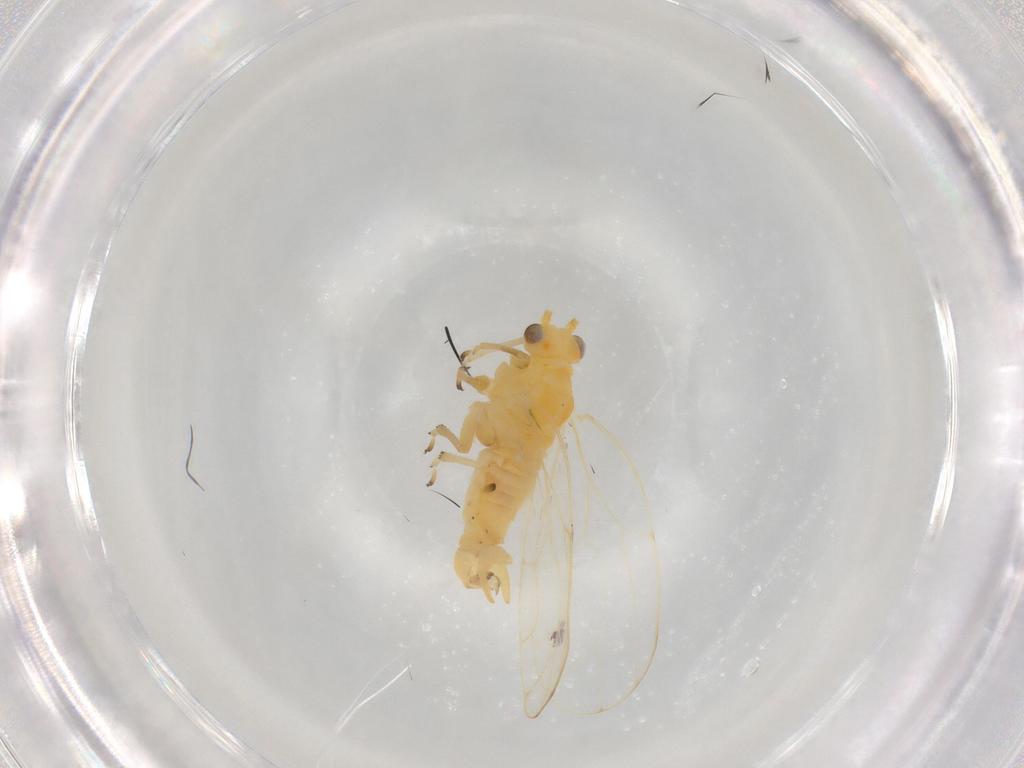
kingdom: Animalia
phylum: Arthropoda
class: Insecta
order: Hemiptera
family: Aphalaridae
